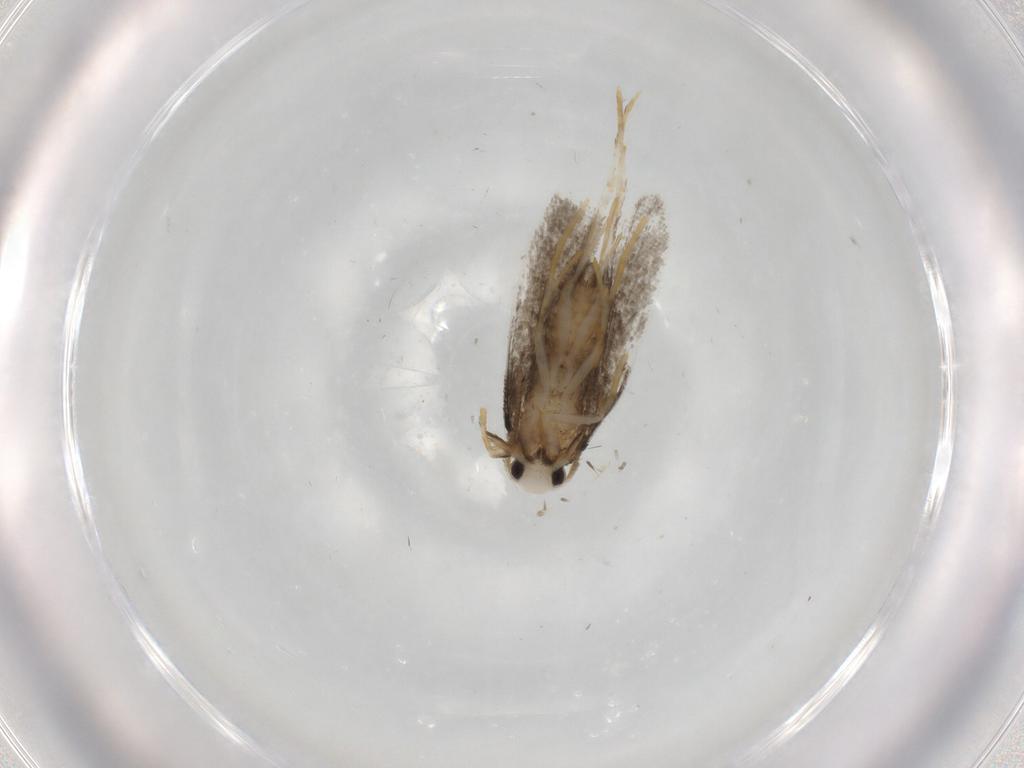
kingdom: Animalia
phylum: Arthropoda
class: Insecta
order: Lepidoptera
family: Psychidae
